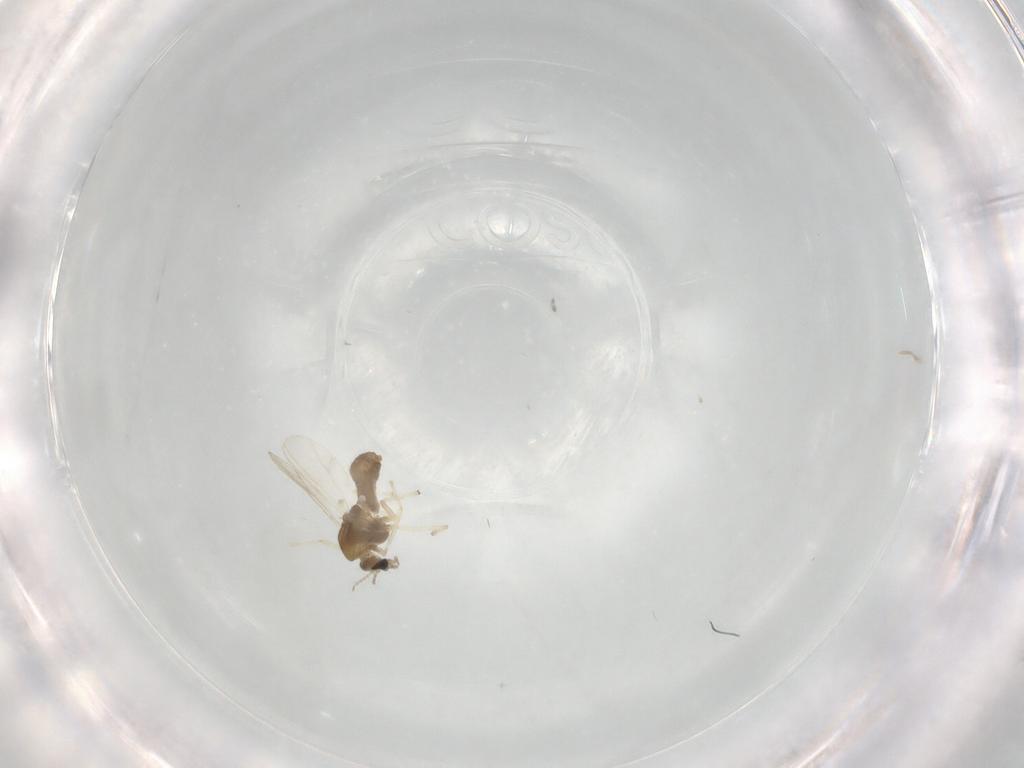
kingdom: Animalia
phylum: Arthropoda
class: Insecta
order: Diptera
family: Chironomidae
